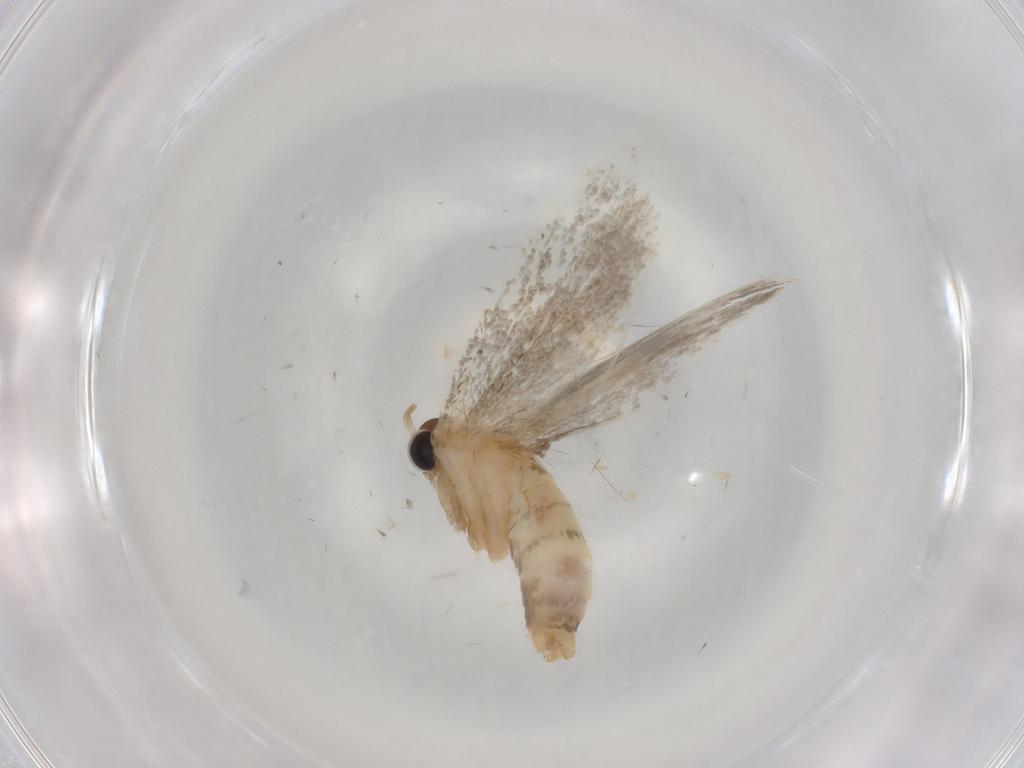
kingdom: Animalia
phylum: Arthropoda
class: Insecta
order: Lepidoptera
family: Oecophoridae
